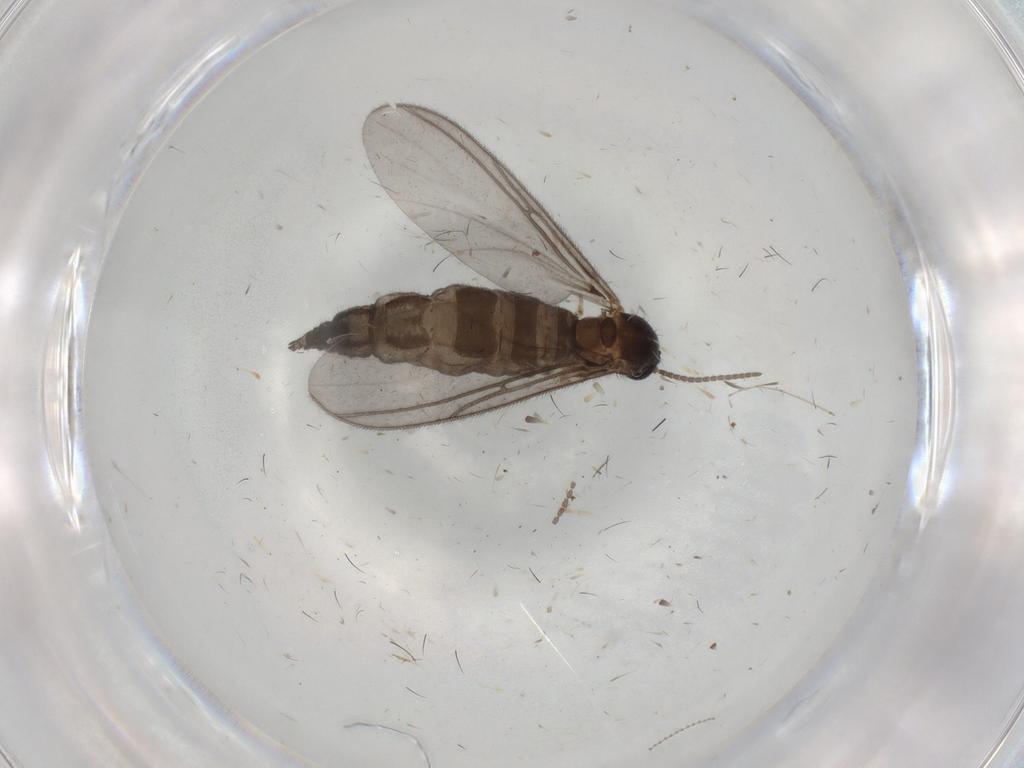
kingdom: Animalia
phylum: Arthropoda
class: Insecta
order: Diptera
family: Sciaridae
